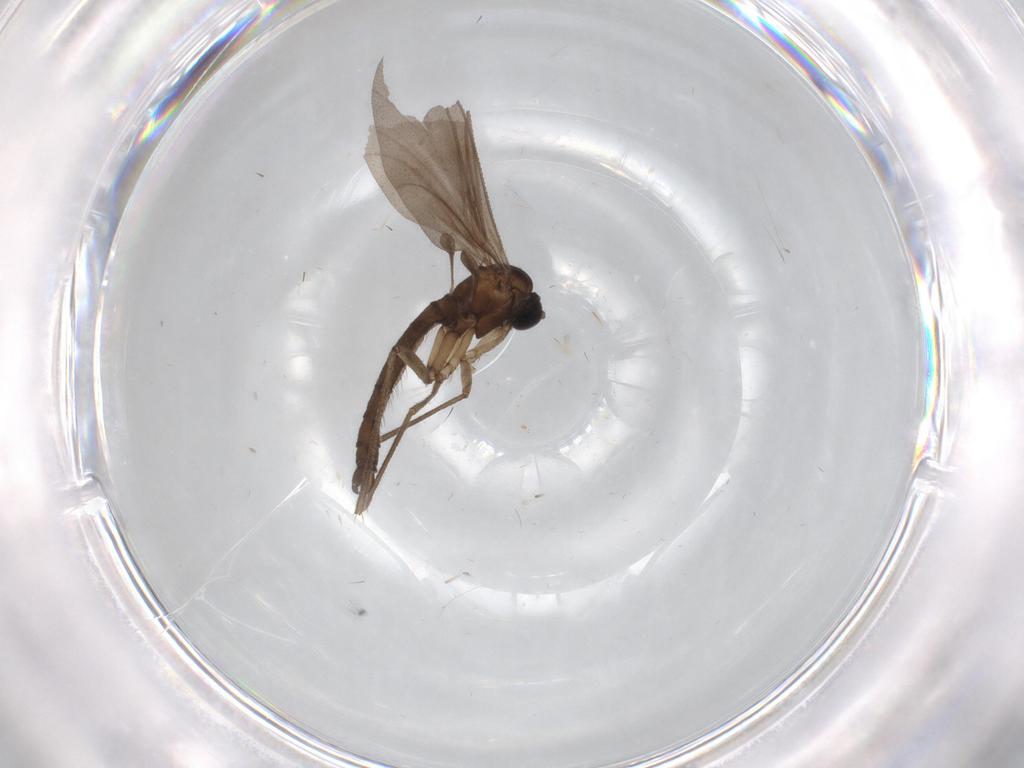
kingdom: Animalia
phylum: Arthropoda
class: Insecta
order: Diptera
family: Sciaridae
